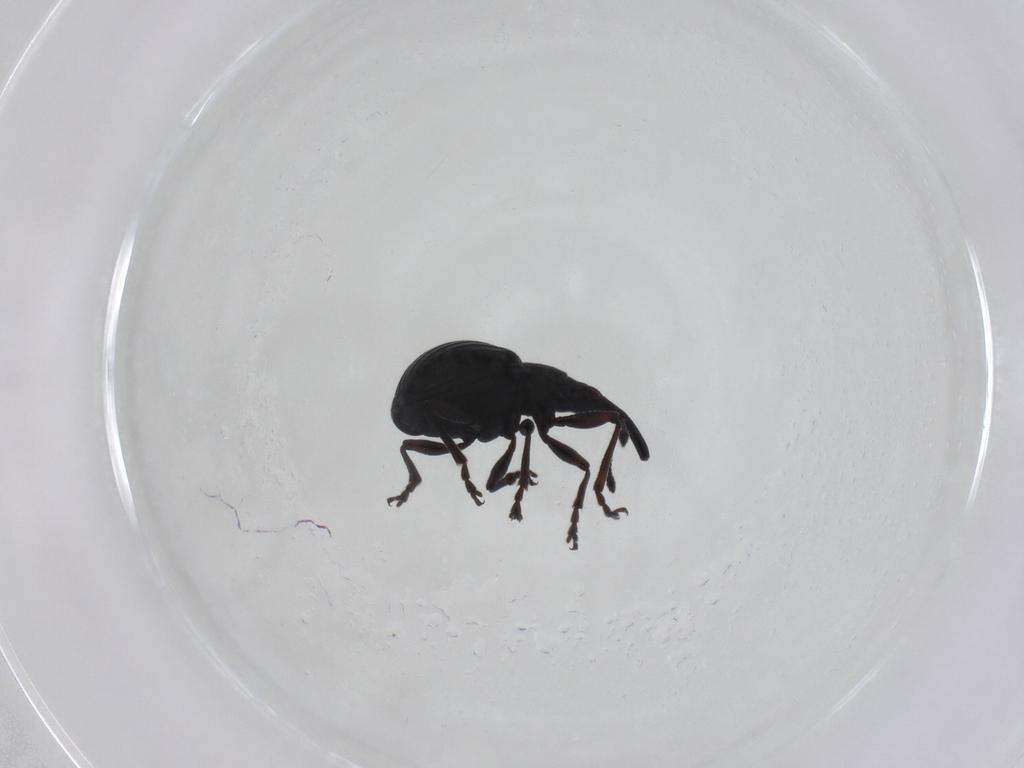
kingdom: Animalia
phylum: Arthropoda
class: Insecta
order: Coleoptera
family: Brentidae
